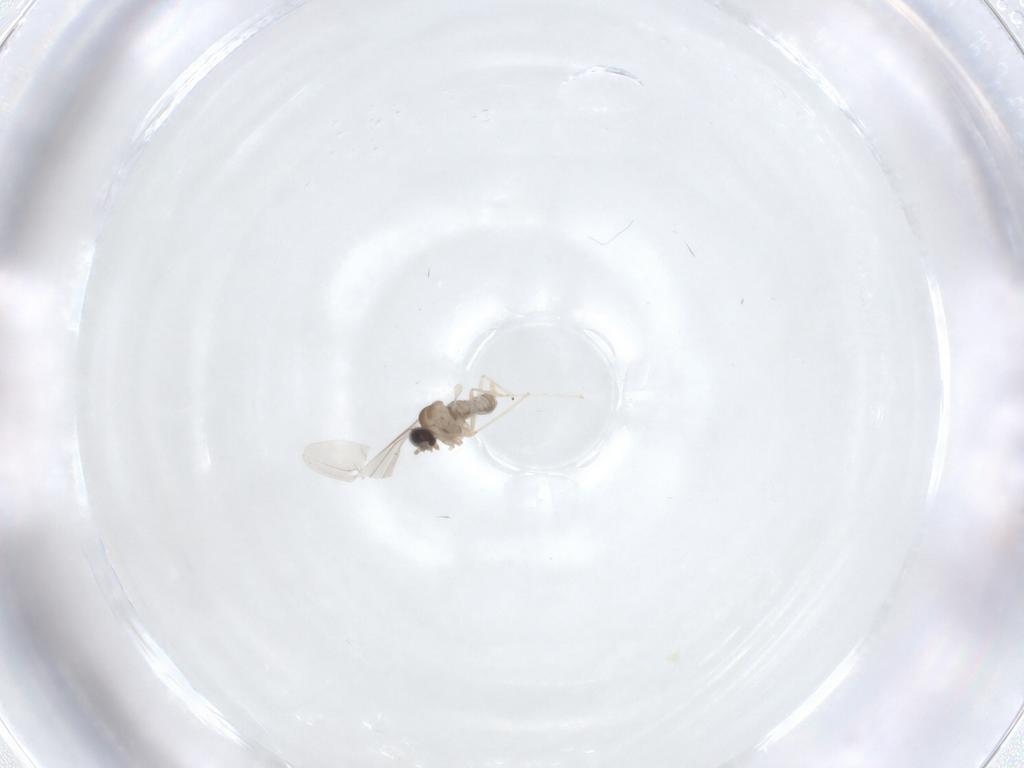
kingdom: Animalia
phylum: Arthropoda
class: Insecta
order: Diptera
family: Cecidomyiidae
